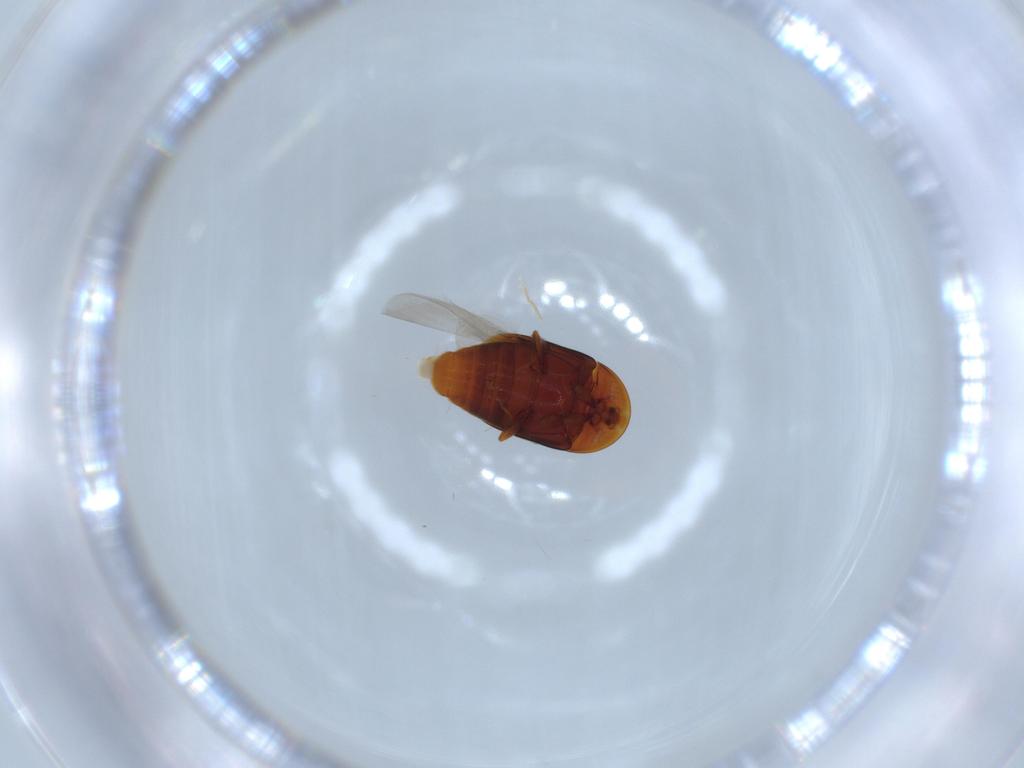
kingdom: Animalia
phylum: Arthropoda
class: Insecta
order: Coleoptera
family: Corylophidae
